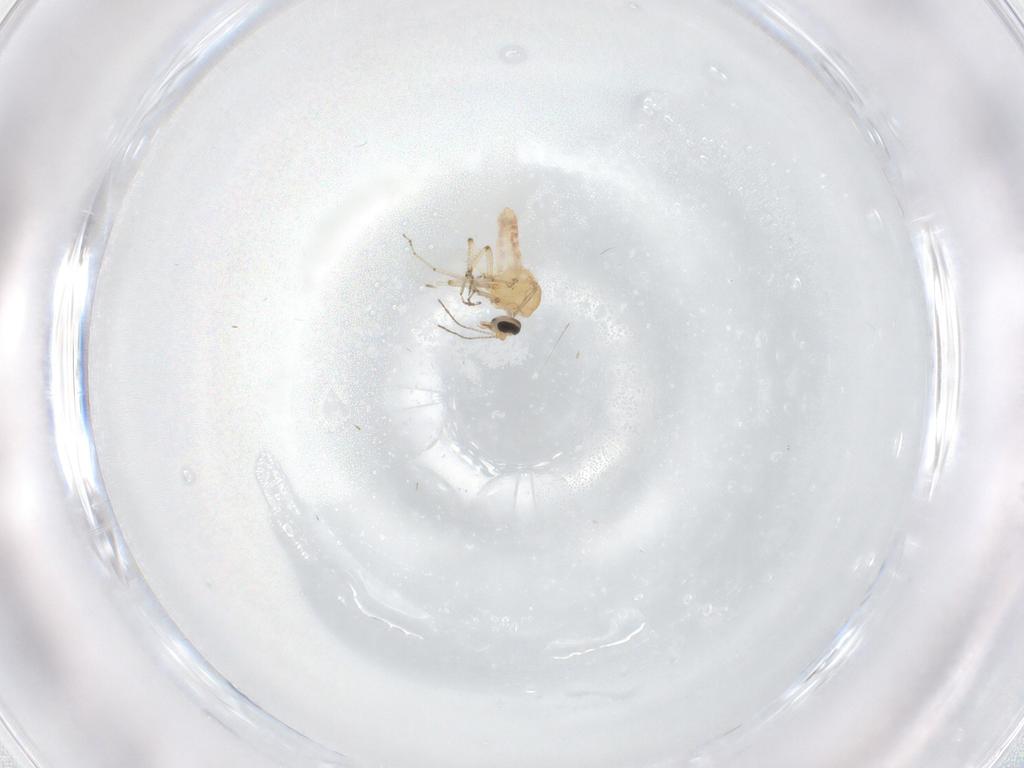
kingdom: Animalia
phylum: Arthropoda
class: Insecta
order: Diptera
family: Ceratopogonidae
